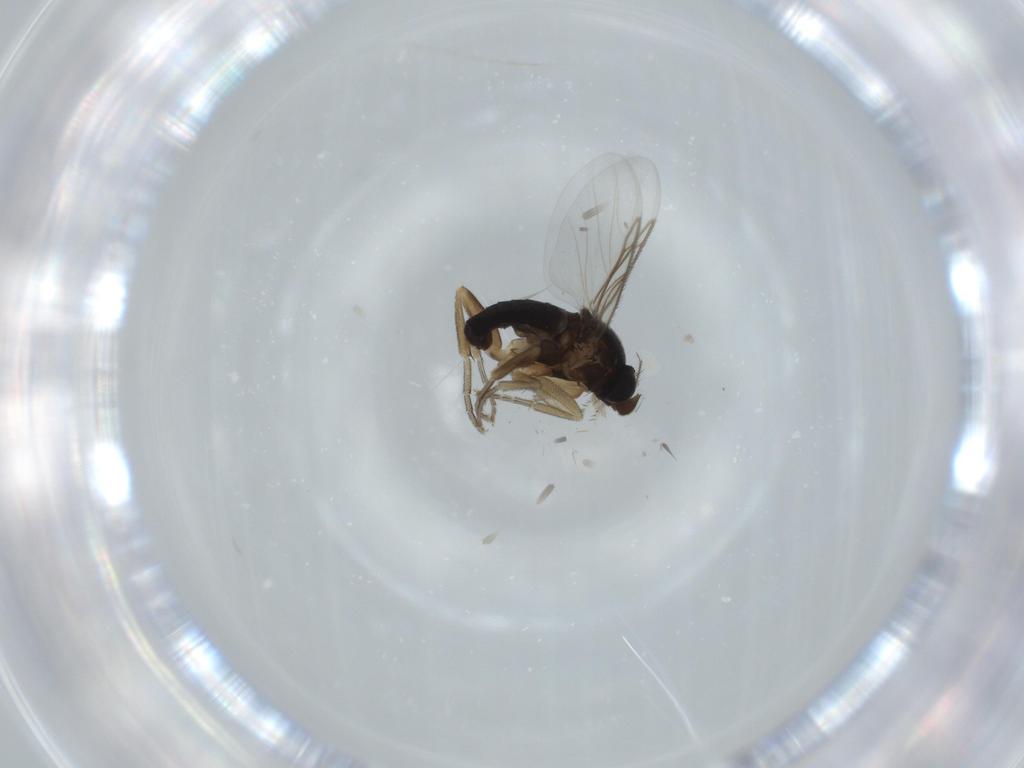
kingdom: Animalia
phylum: Arthropoda
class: Insecta
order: Diptera
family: Phoridae
